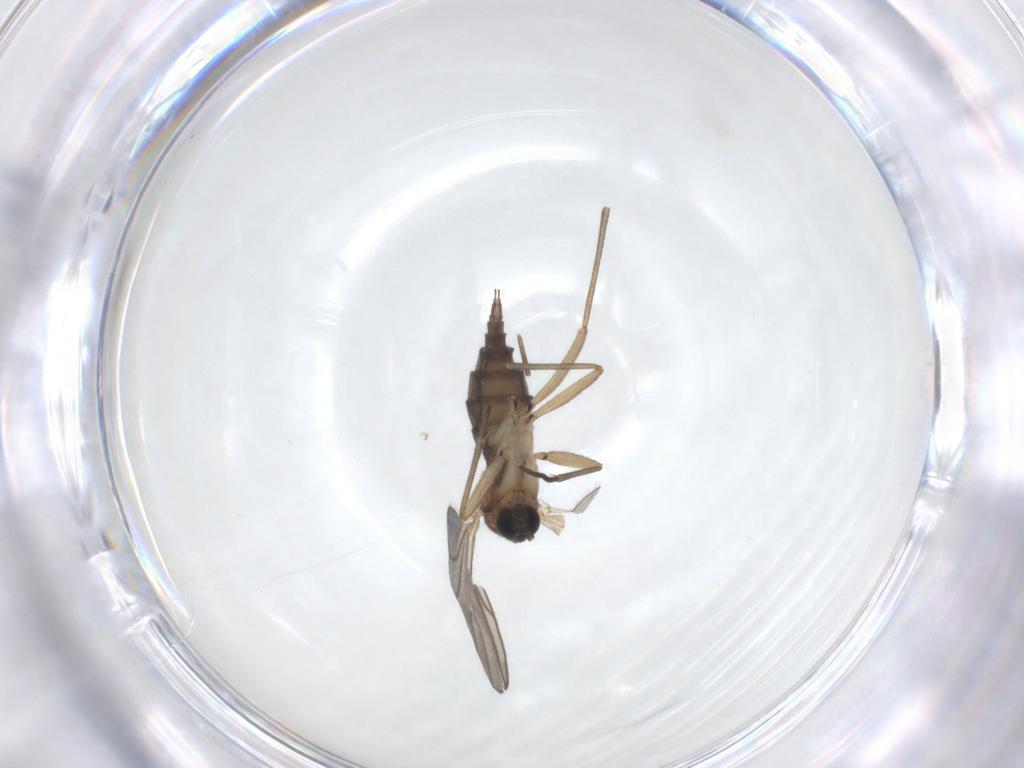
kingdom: Animalia
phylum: Arthropoda
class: Insecta
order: Diptera
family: Sciaridae
